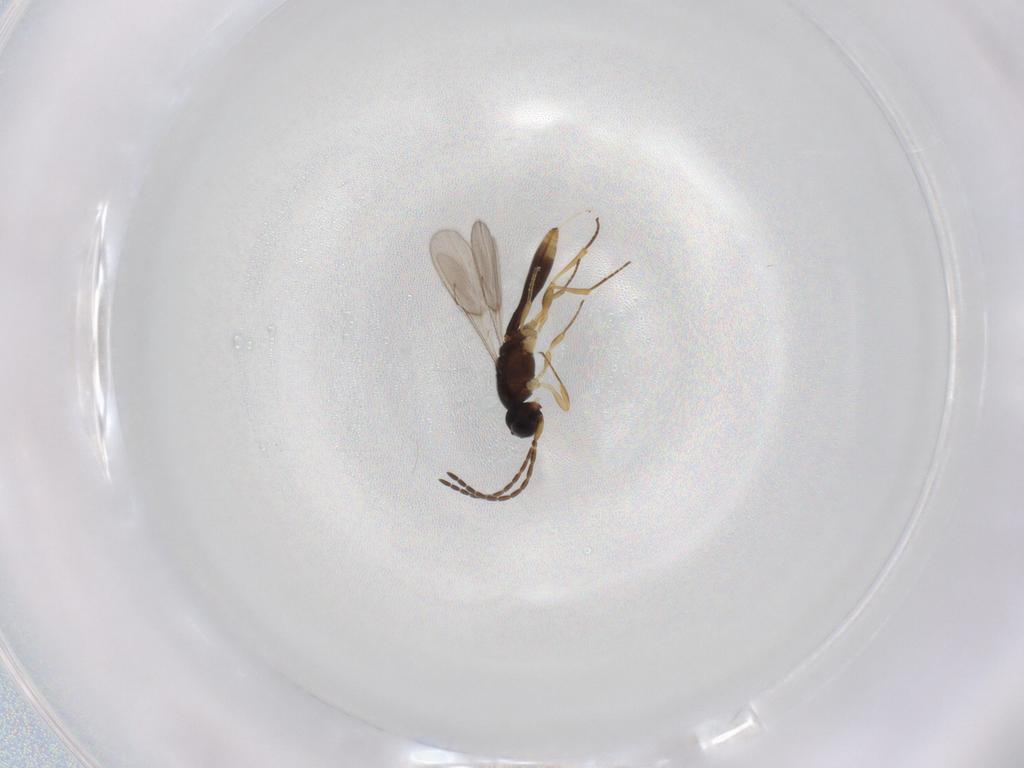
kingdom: Animalia
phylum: Arthropoda
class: Insecta
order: Hymenoptera
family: Scelionidae
